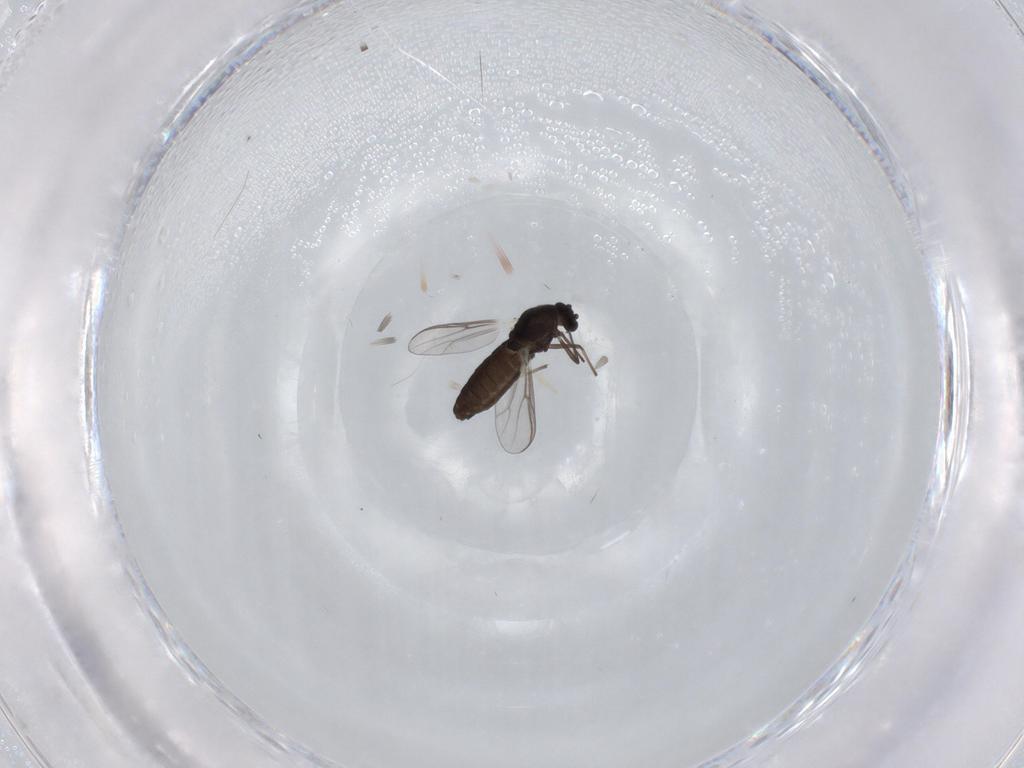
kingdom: Animalia
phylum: Arthropoda
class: Insecta
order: Diptera
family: Chironomidae
